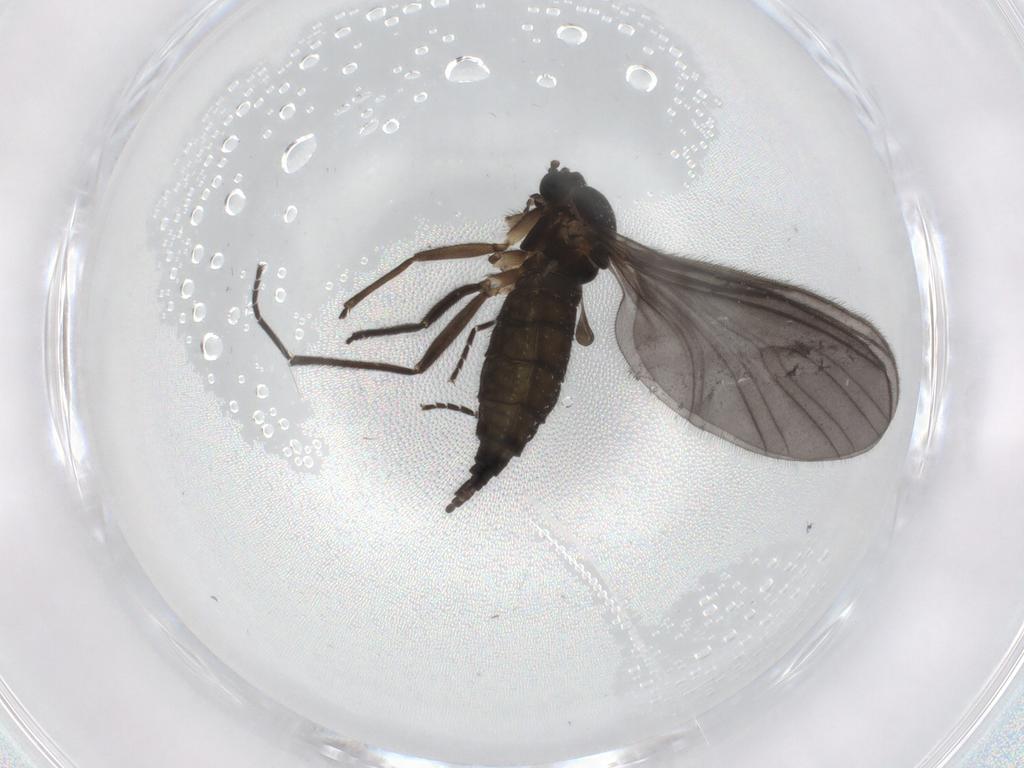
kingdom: Animalia
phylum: Arthropoda
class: Insecta
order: Diptera
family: Sciaridae
